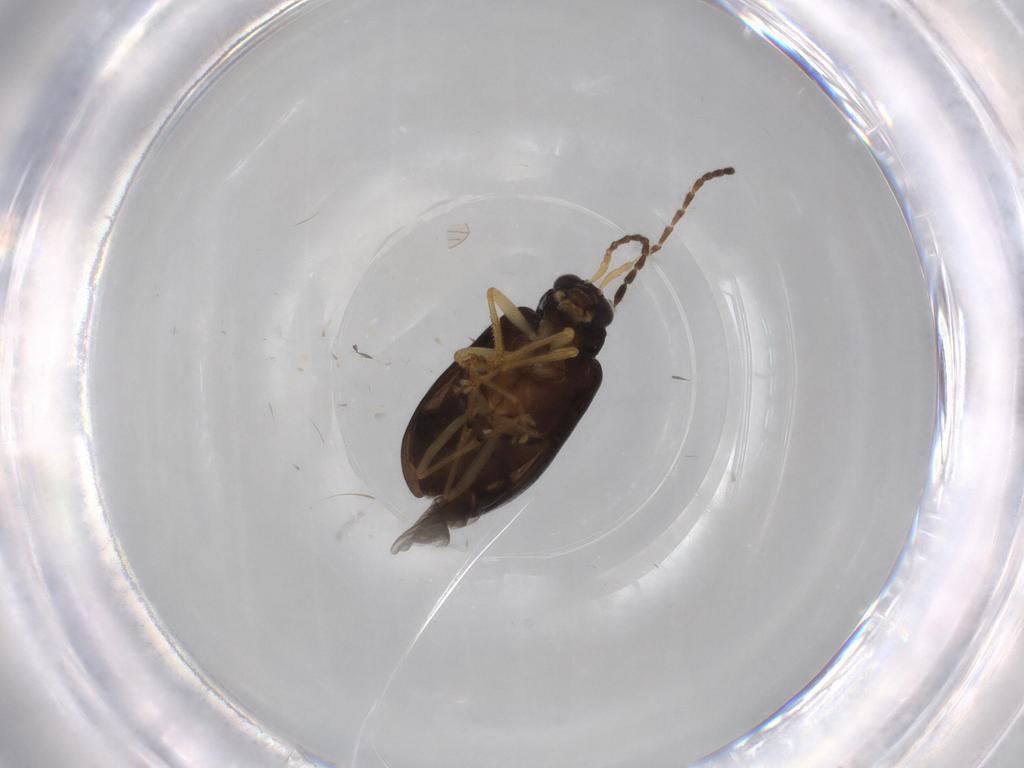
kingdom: Animalia
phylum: Arthropoda
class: Insecta
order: Coleoptera
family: Chrysomelidae
